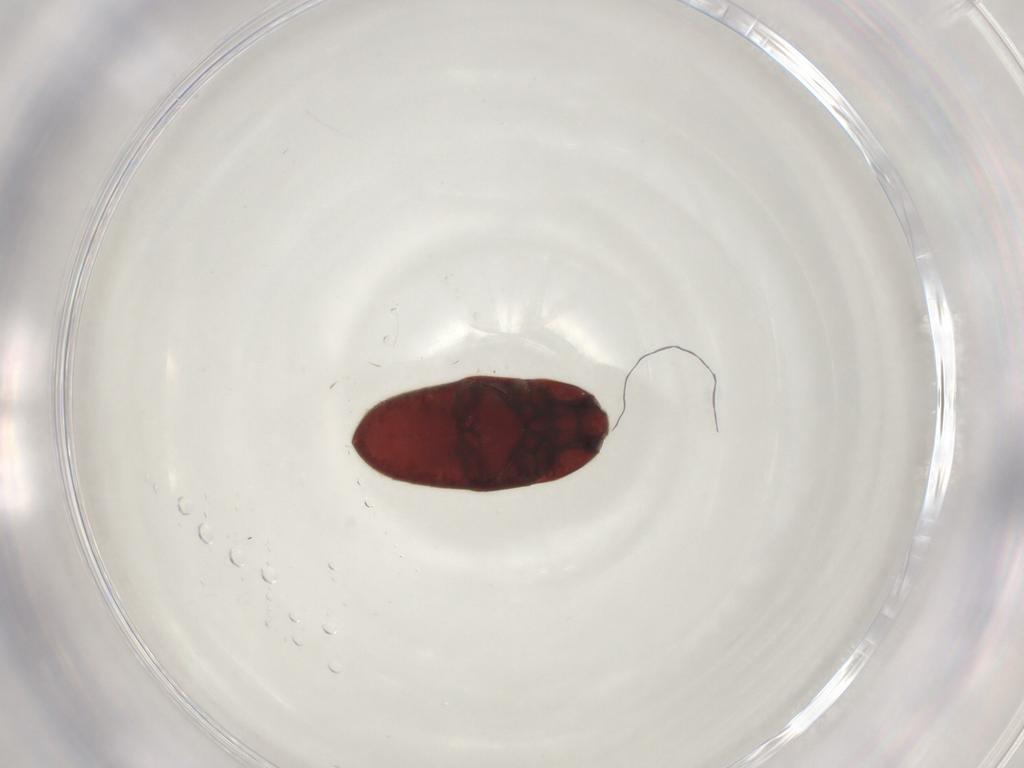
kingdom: Animalia
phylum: Arthropoda
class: Insecta
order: Coleoptera
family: Throscidae
